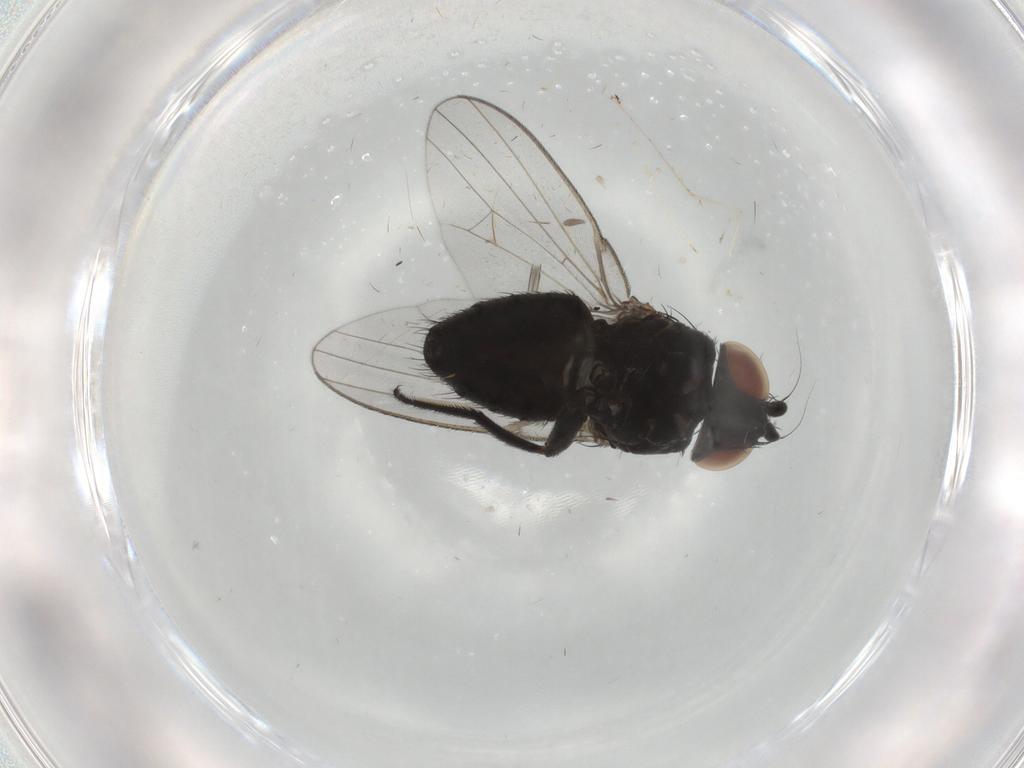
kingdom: Animalia
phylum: Arthropoda
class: Insecta
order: Diptera
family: Milichiidae
